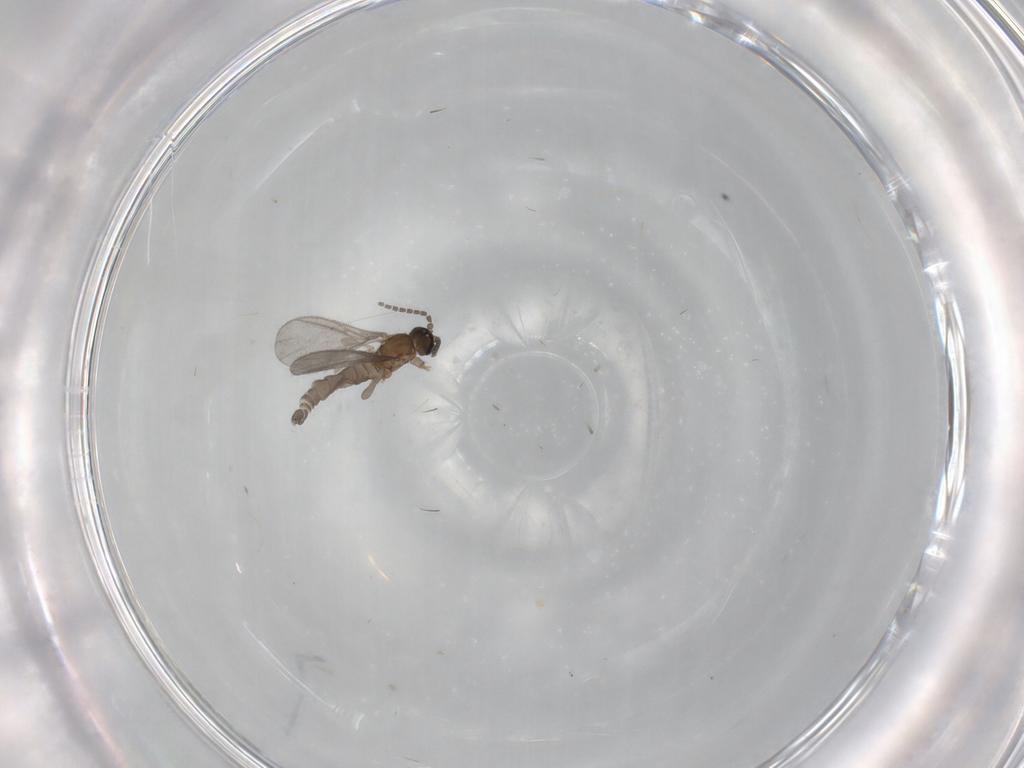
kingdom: Animalia
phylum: Arthropoda
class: Insecta
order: Diptera
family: Sciaridae
